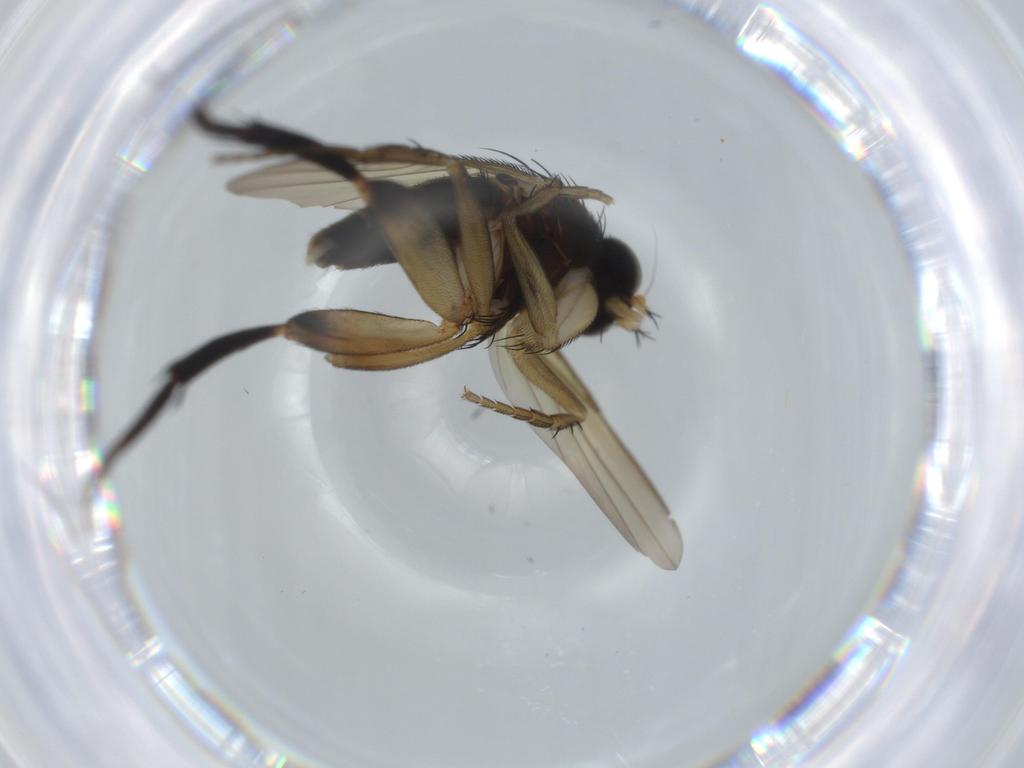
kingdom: Animalia
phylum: Arthropoda
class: Insecta
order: Diptera
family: Phoridae
